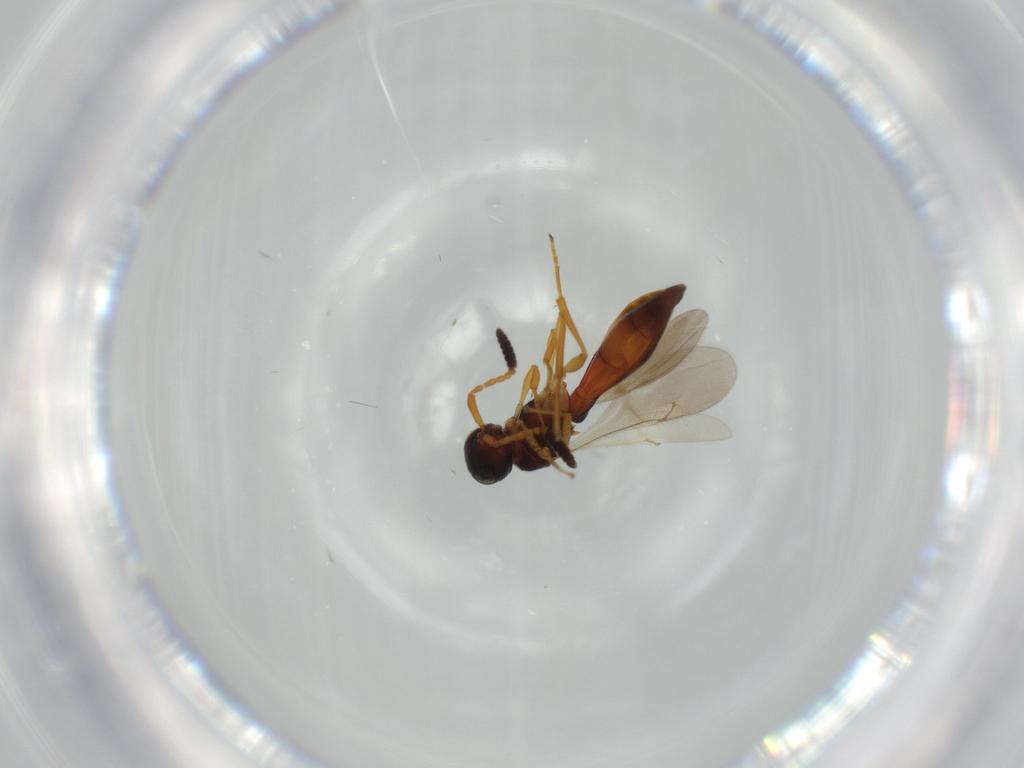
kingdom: Animalia
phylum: Arthropoda
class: Insecta
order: Hymenoptera
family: Scelionidae
